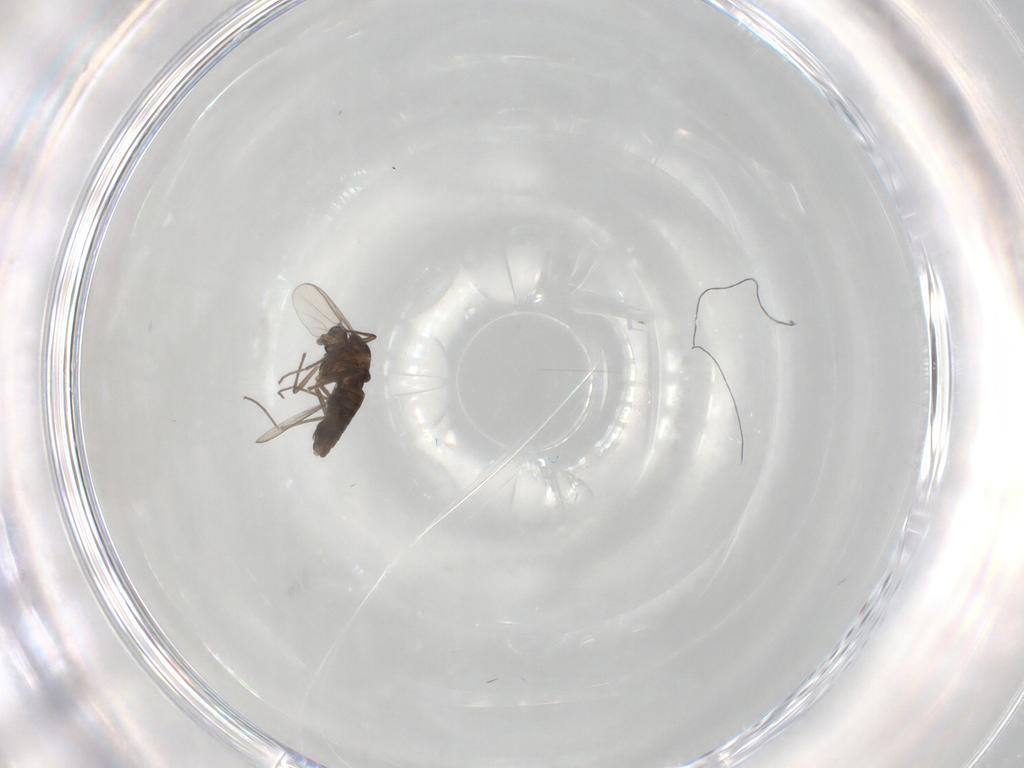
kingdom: Animalia
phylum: Arthropoda
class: Insecta
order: Diptera
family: Chironomidae
